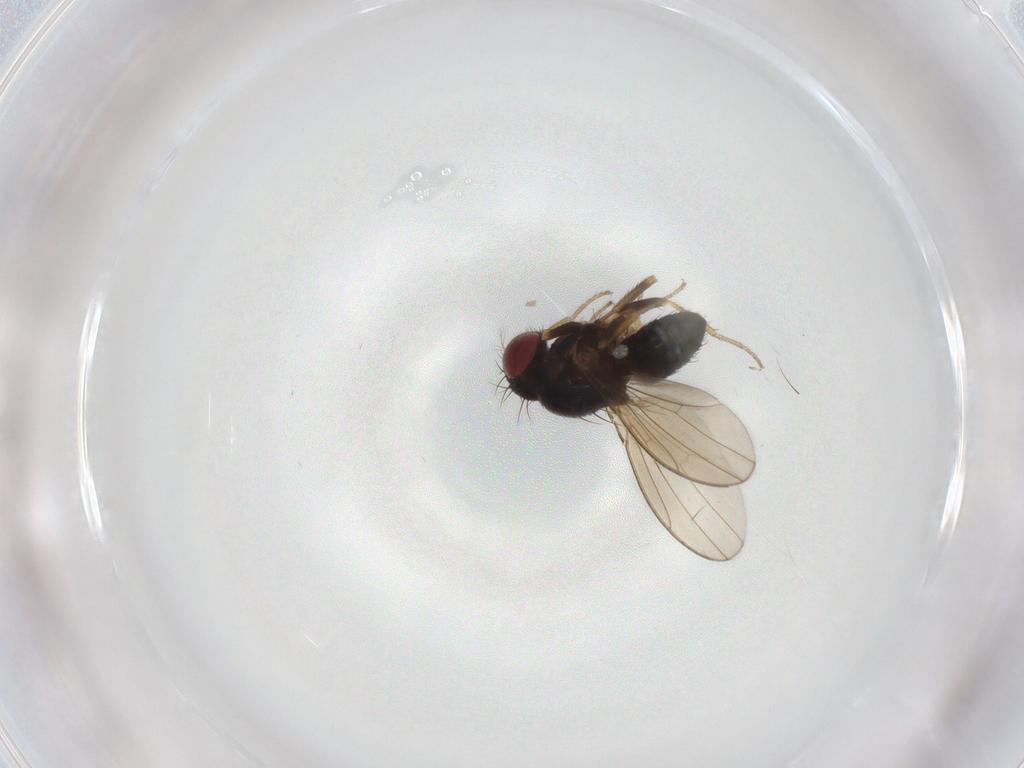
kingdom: Animalia
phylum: Arthropoda
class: Insecta
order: Diptera
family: Drosophilidae
